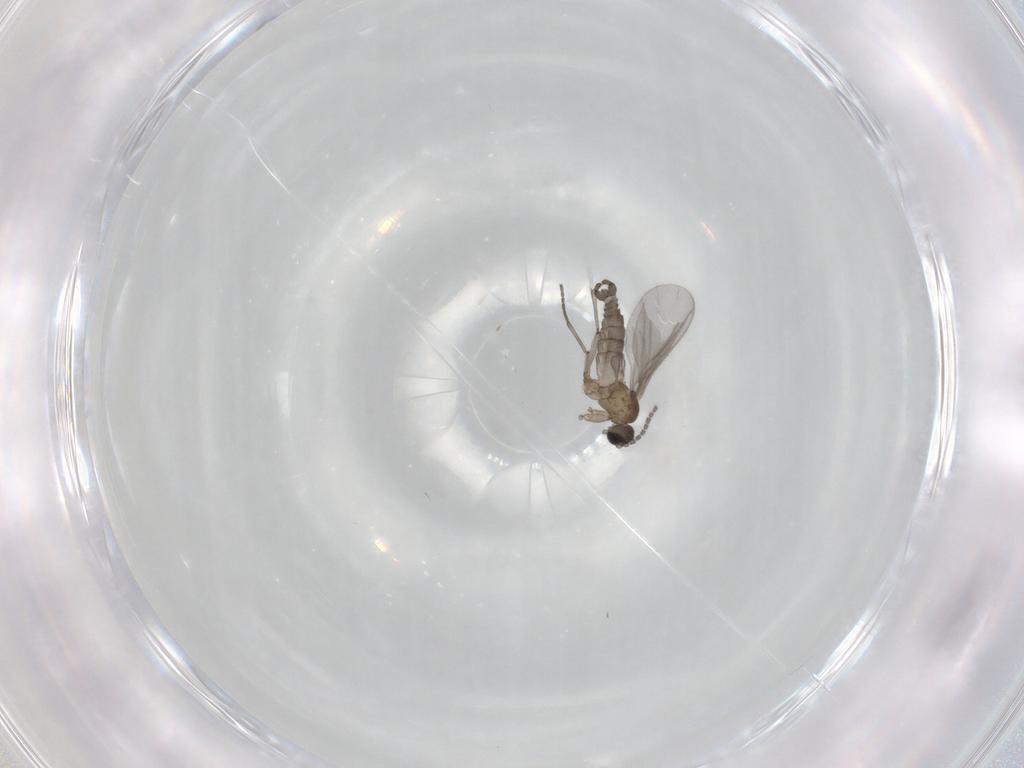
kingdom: Animalia
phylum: Arthropoda
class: Insecta
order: Diptera
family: Sciaridae
